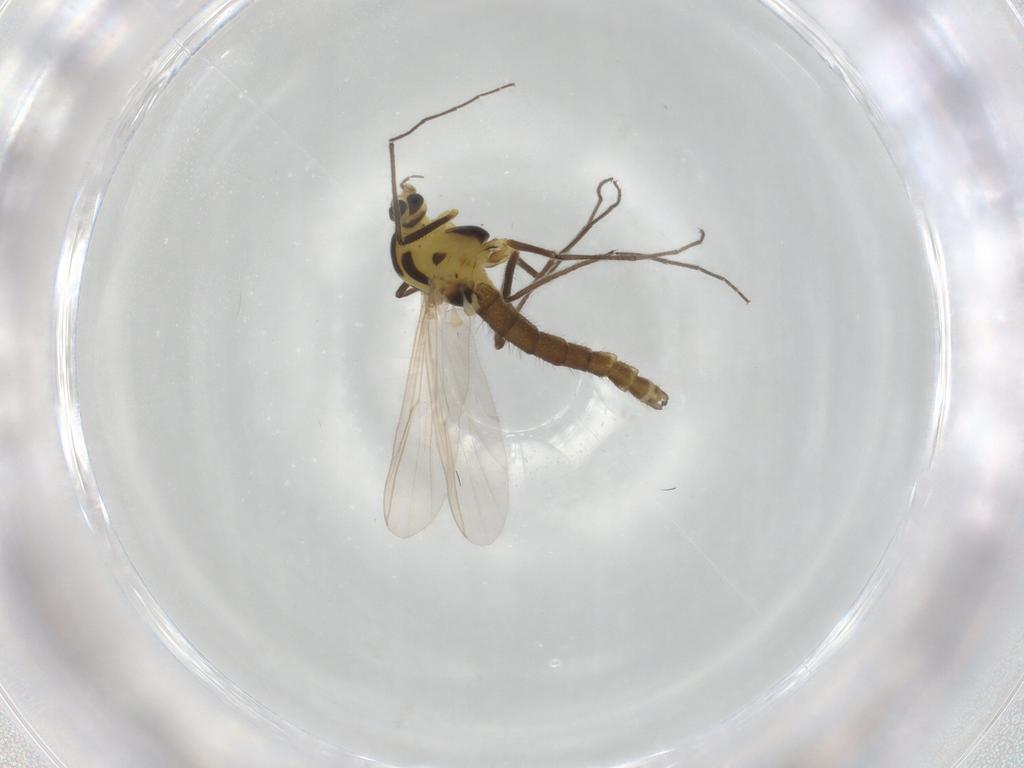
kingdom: Animalia
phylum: Arthropoda
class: Insecta
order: Diptera
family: Chironomidae
